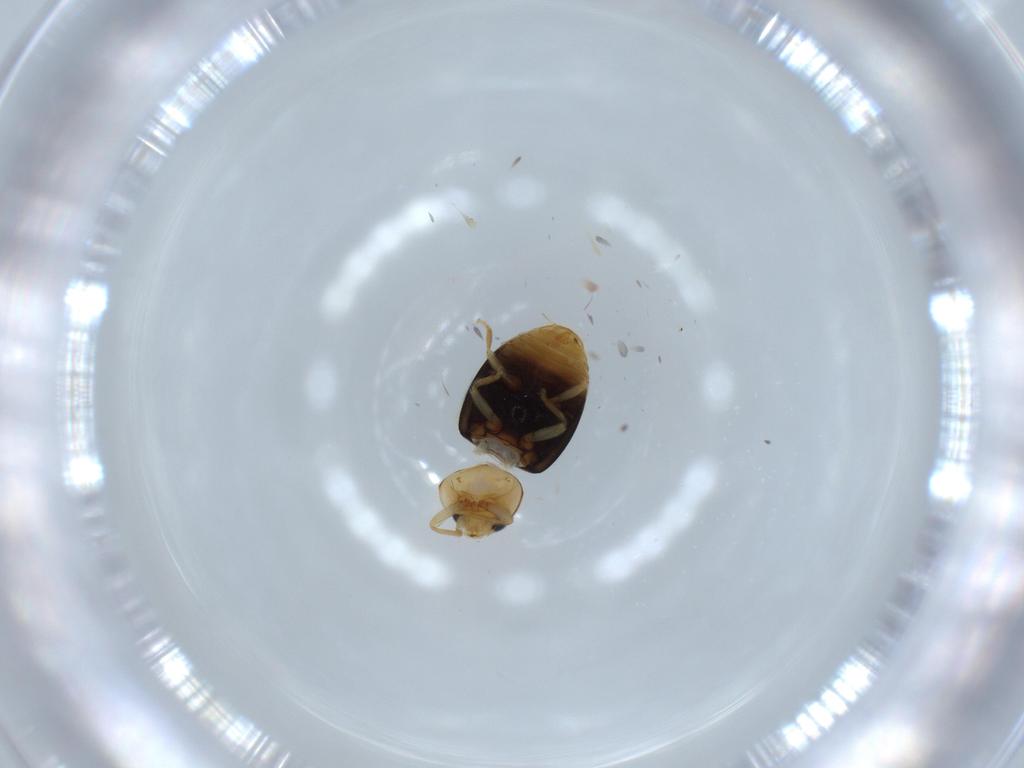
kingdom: Animalia
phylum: Arthropoda
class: Insecta
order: Coleoptera
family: Coccinellidae
